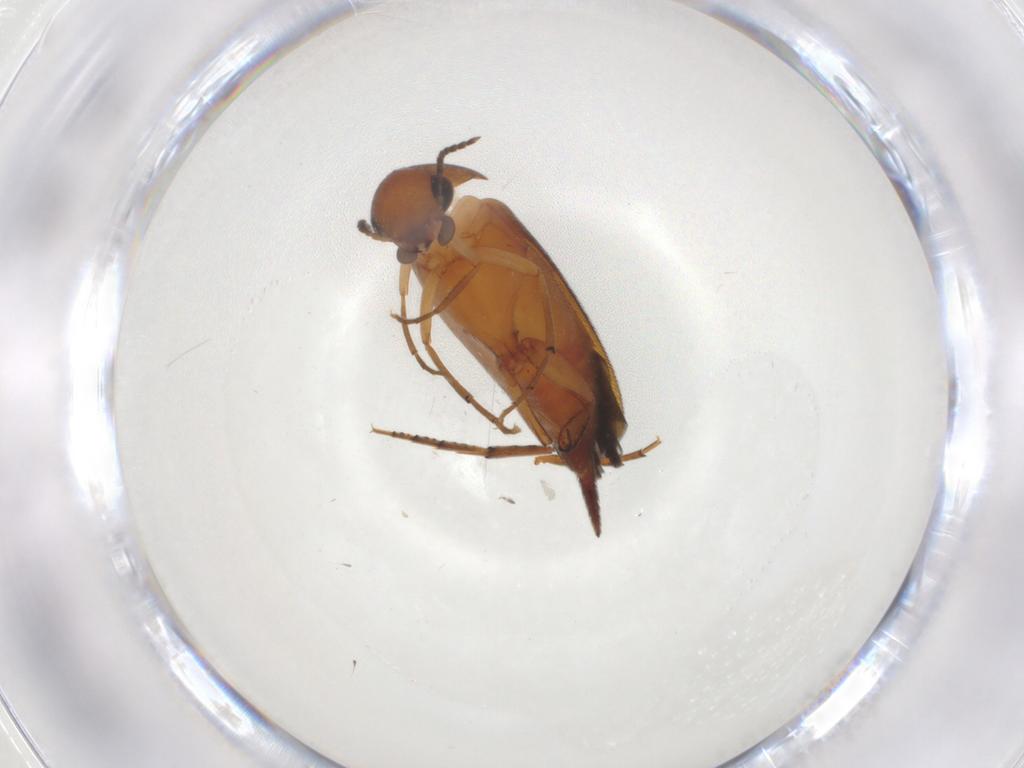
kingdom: Animalia
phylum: Arthropoda
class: Insecta
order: Coleoptera
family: Mordellidae
